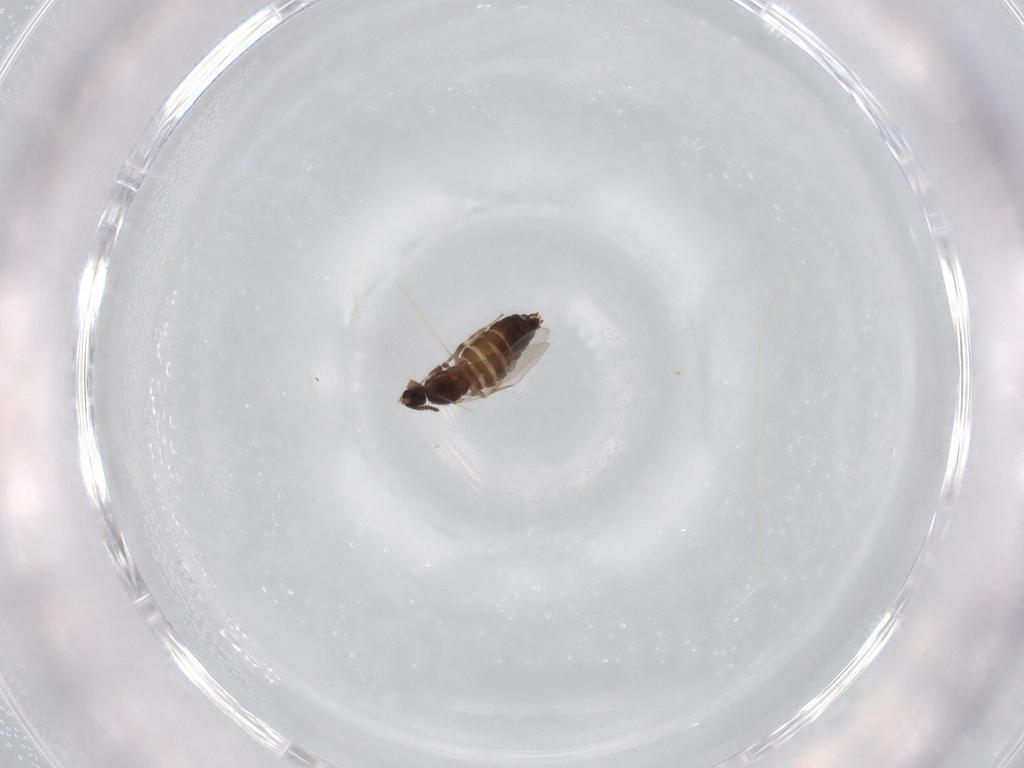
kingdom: Animalia
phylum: Arthropoda
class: Insecta
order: Diptera
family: Scatopsidae
